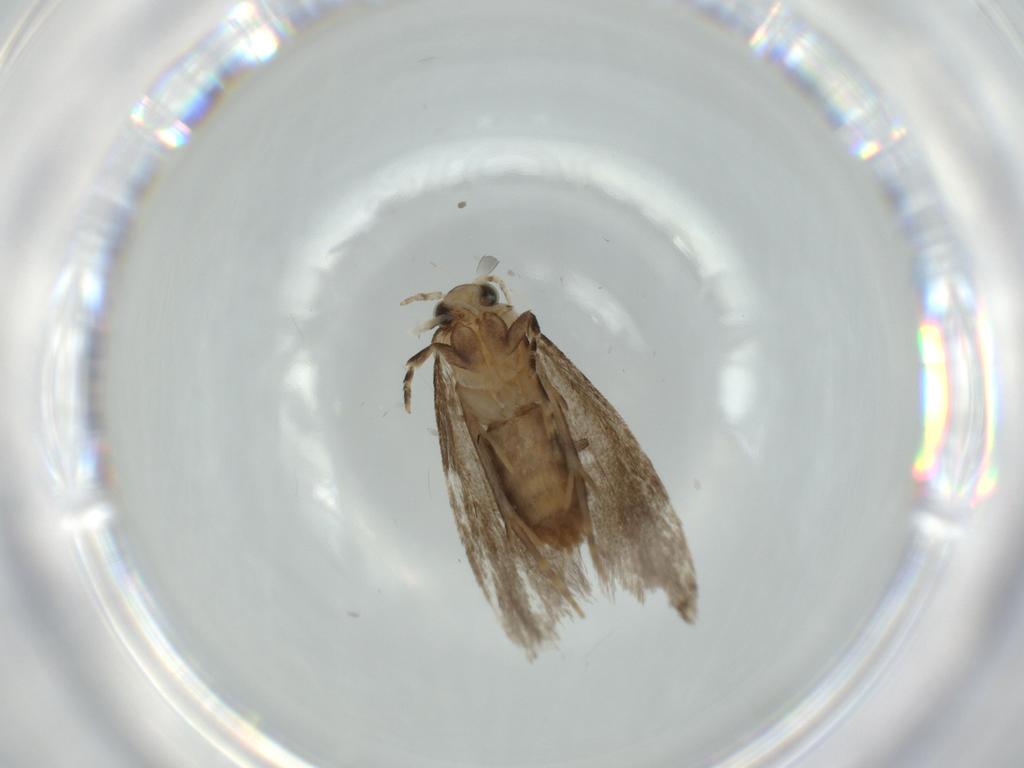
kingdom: Animalia
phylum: Arthropoda
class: Insecta
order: Lepidoptera
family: Tineidae
